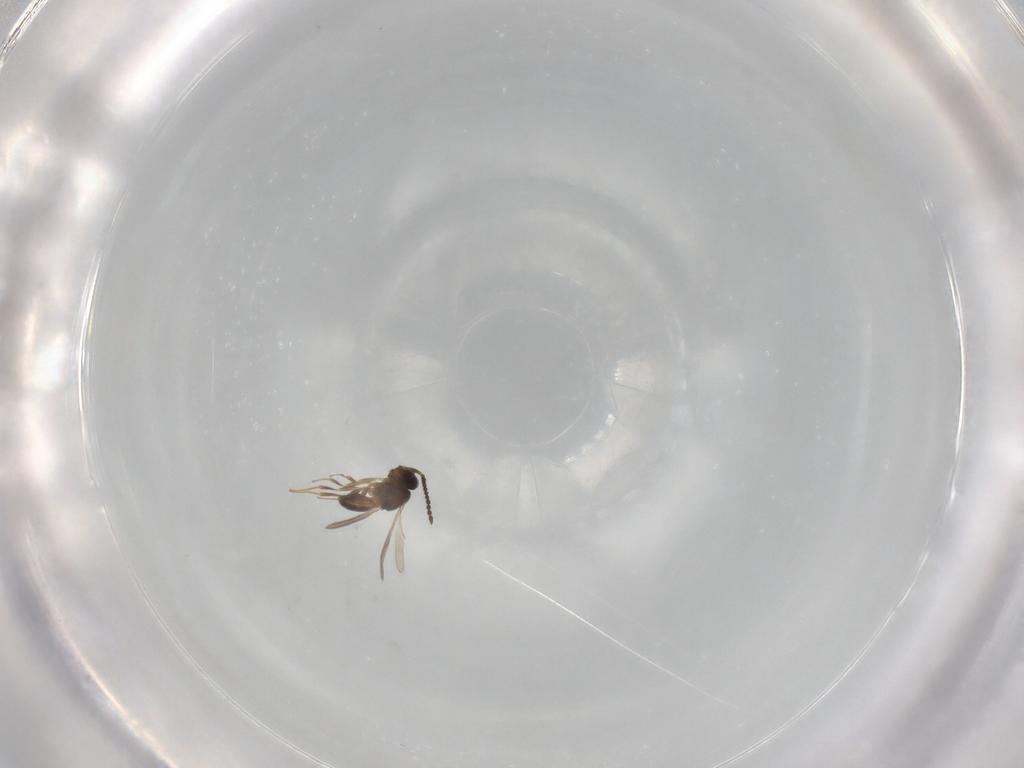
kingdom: Animalia
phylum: Arthropoda
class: Insecta
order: Hymenoptera
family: Scelionidae
